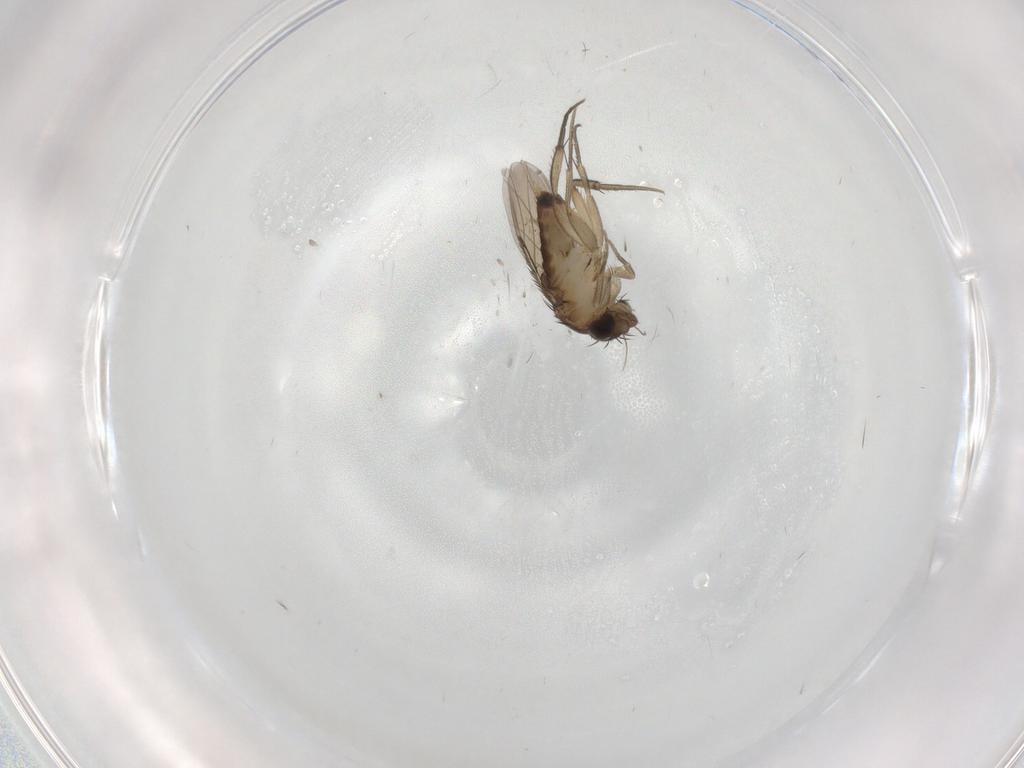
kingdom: Animalia
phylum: Arthropoda
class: Insecta
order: Diptera
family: Phoridae
